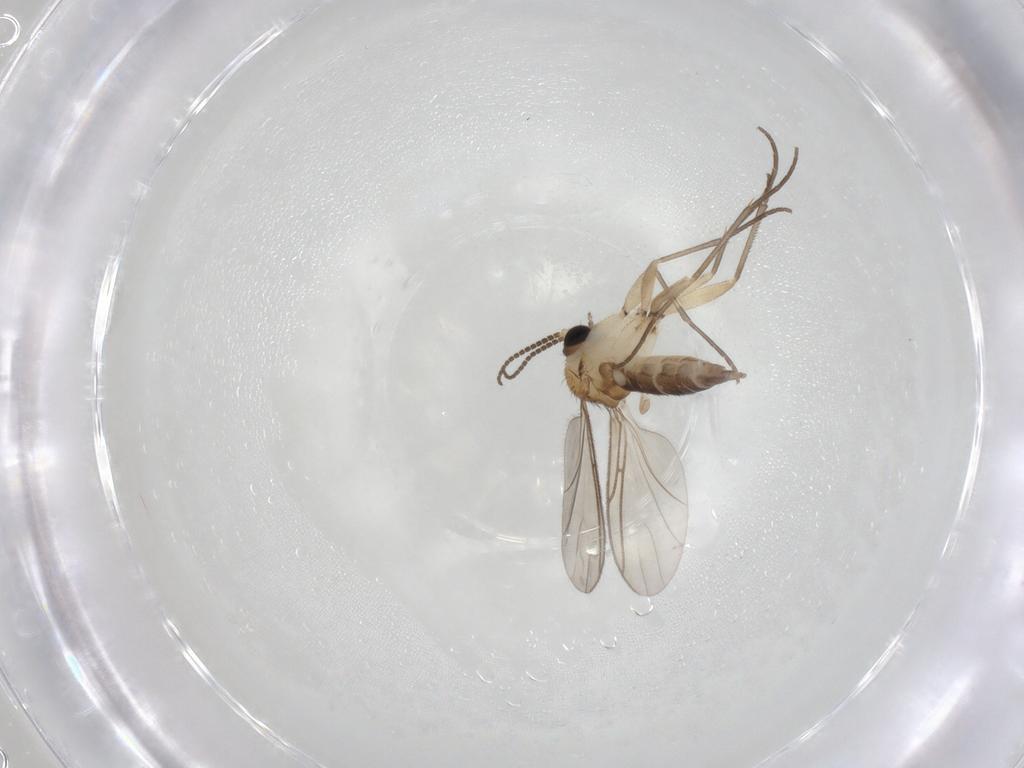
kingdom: Animalia
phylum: Arthropoda
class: Insecta
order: Diptera
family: Sciaridae
